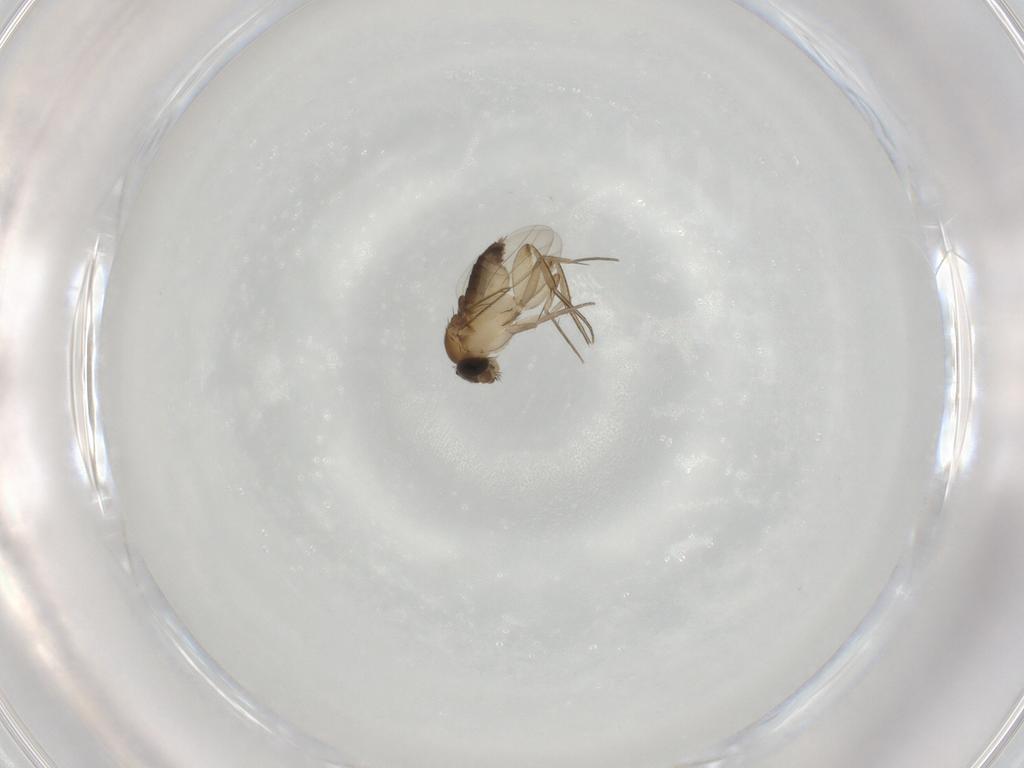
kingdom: Animalia
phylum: Arthropoda
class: Insecta
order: Diptera
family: Phoridae
